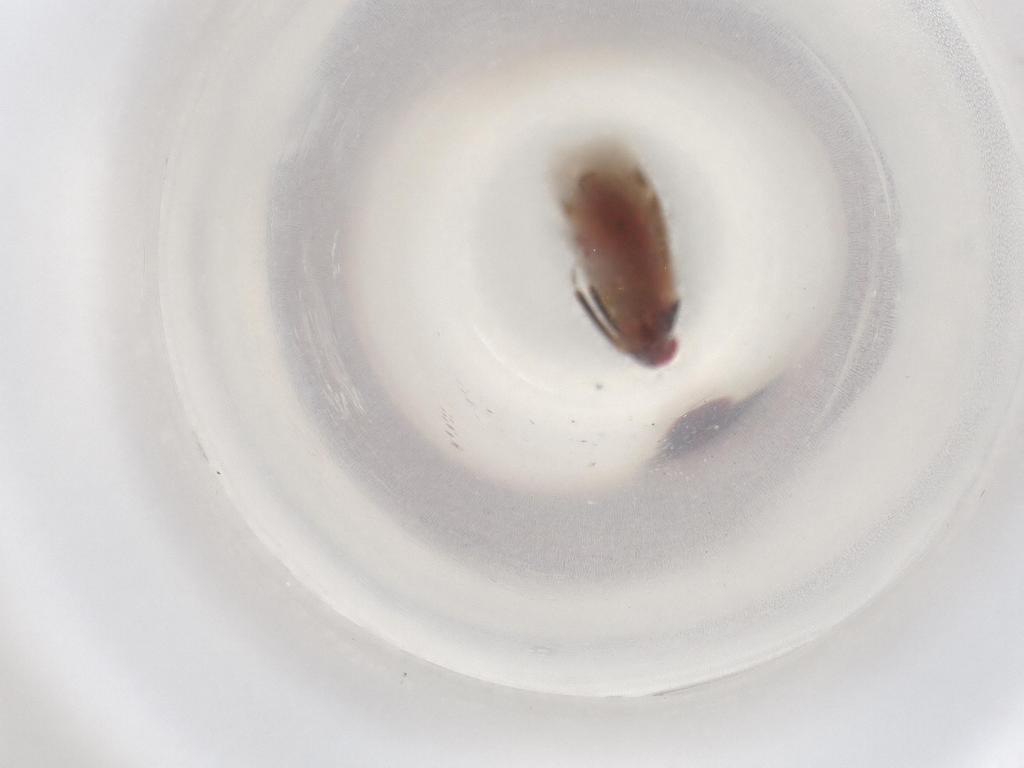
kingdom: Animalia
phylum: Arthropoda
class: Insecta
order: Hemiptera
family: Miridae
